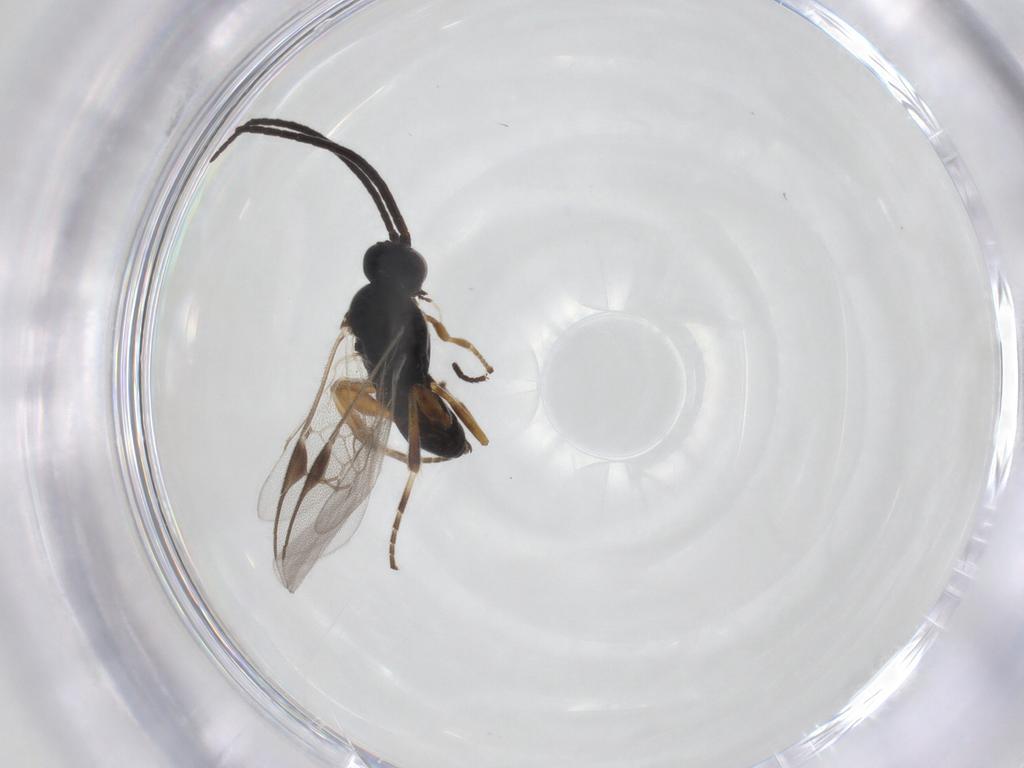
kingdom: Animalia
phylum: Arthropoda
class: Insecta
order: Hymenoptera
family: Braconidae
